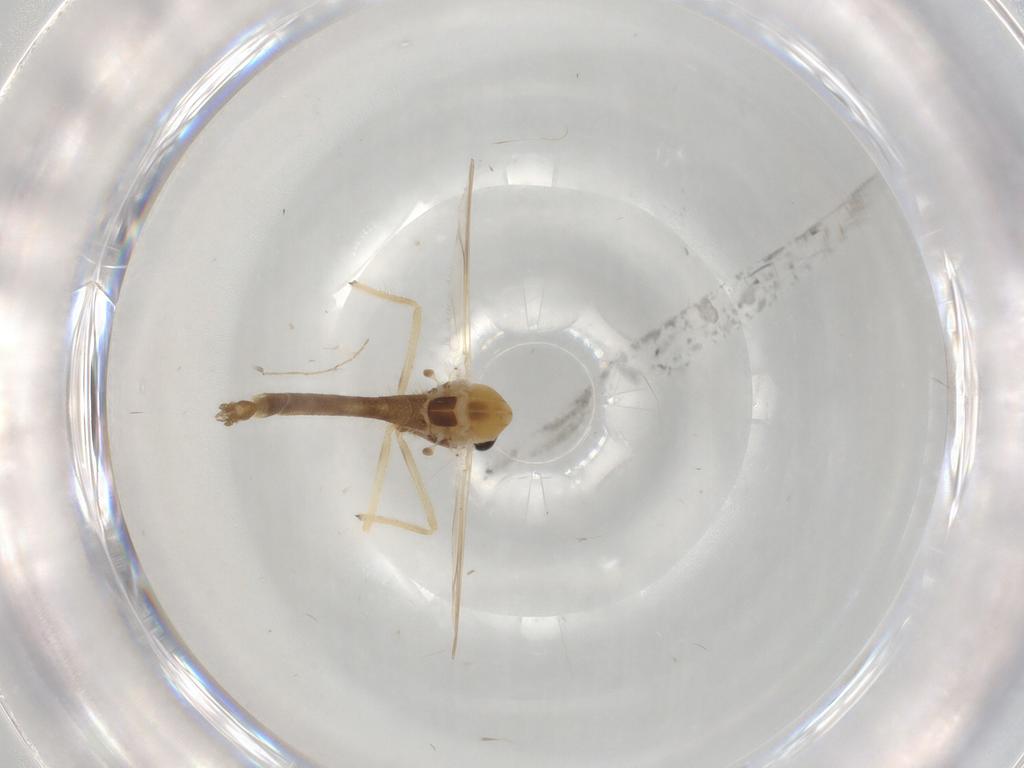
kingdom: Animalia
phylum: Arthropoda
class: Insecta
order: Diptera
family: Chironomidae
